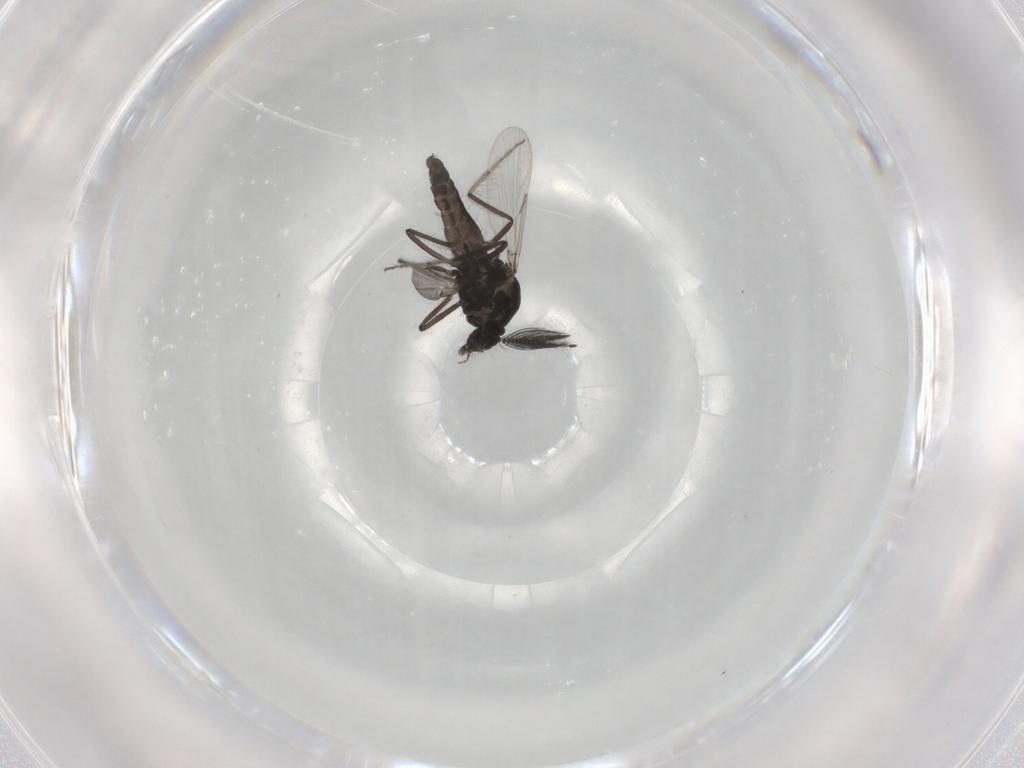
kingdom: Animalia
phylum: Arthropoda
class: Insecta
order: Diptera
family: Ceratopogonidae
